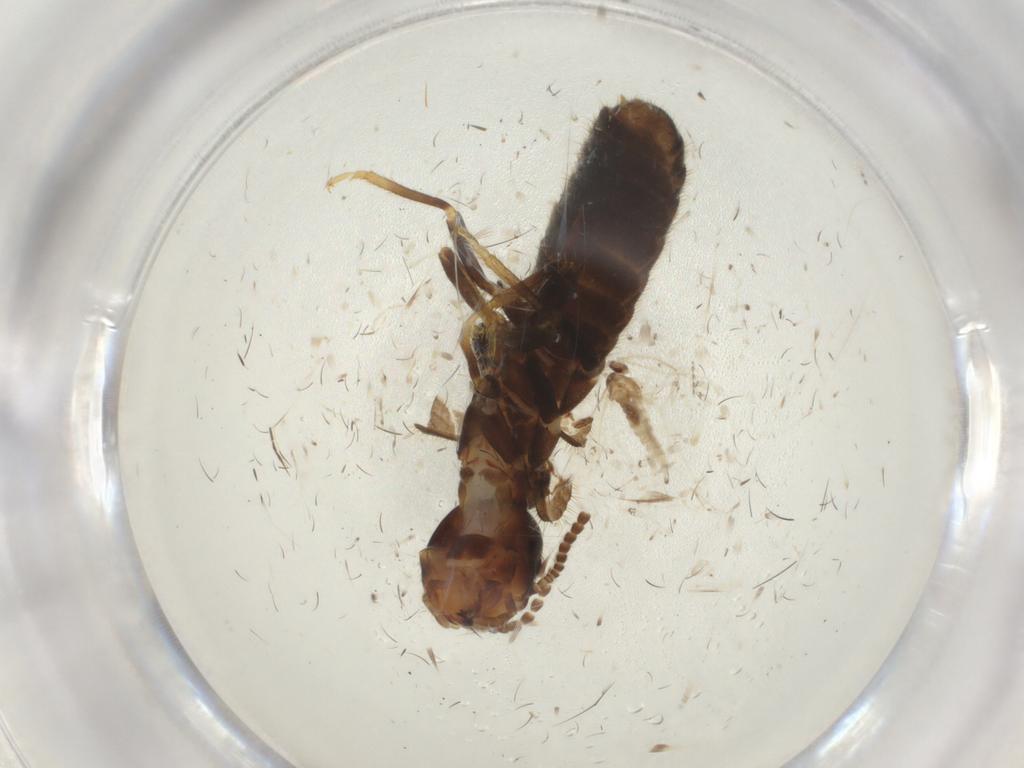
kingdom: Animalia
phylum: Arthropoda
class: Insecta
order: Blattodea
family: Rhinotermitidae
